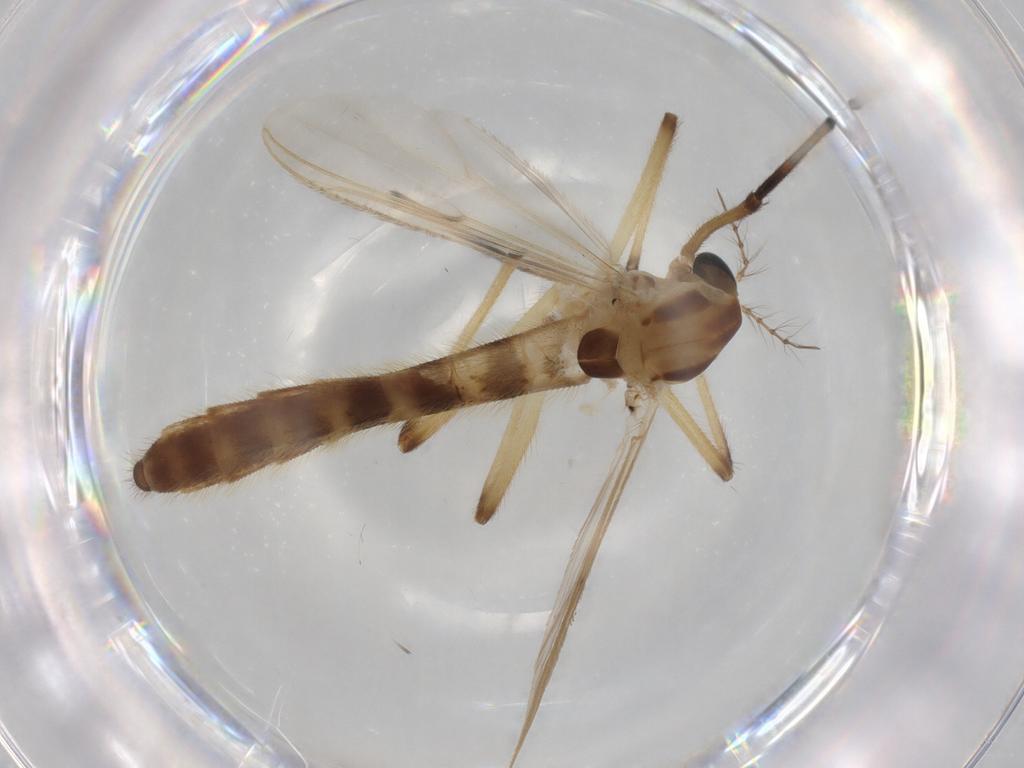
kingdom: Animalia
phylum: Arthropoda
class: Insecta
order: Diptera
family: Cecidomyiidae
